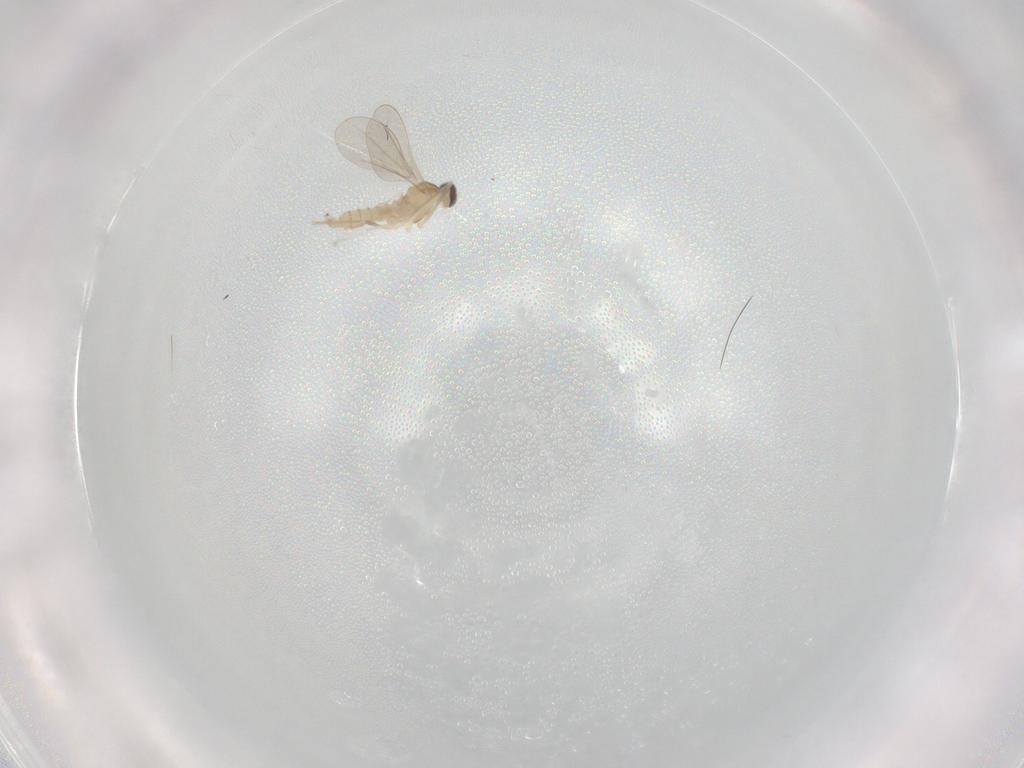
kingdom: Animalia
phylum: Arthropoda
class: Insecta
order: Diptera
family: Cecidomyiidae
